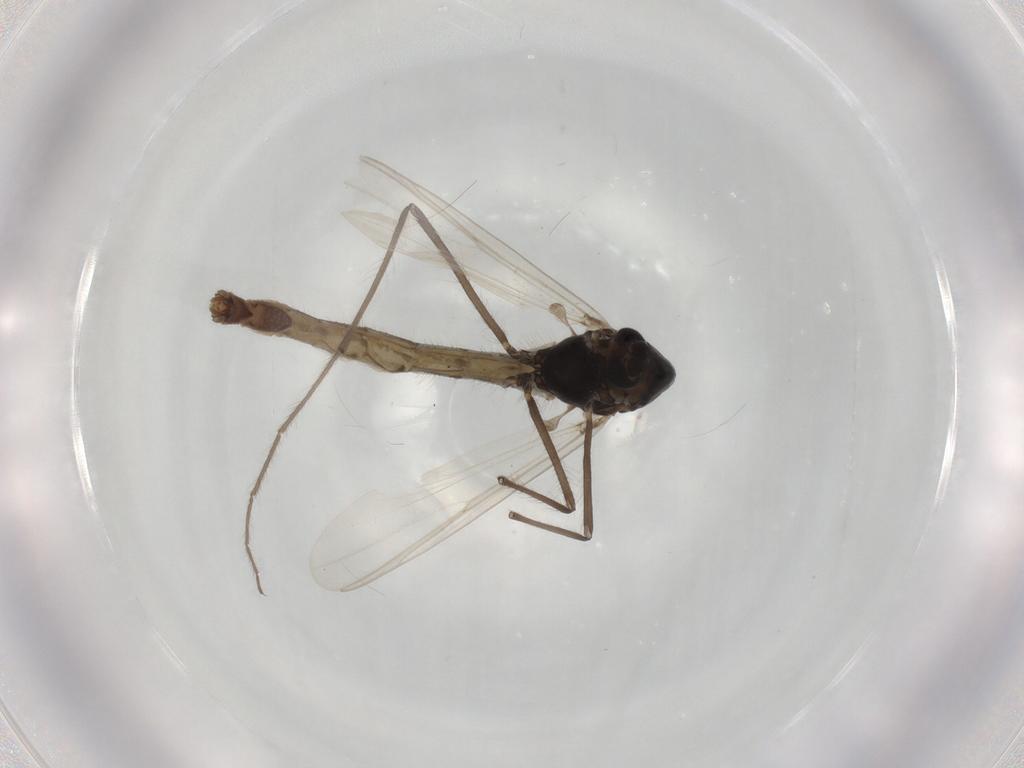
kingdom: Animalia
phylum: Arthropoda
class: Insecta
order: Diptera
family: Chironomidae
